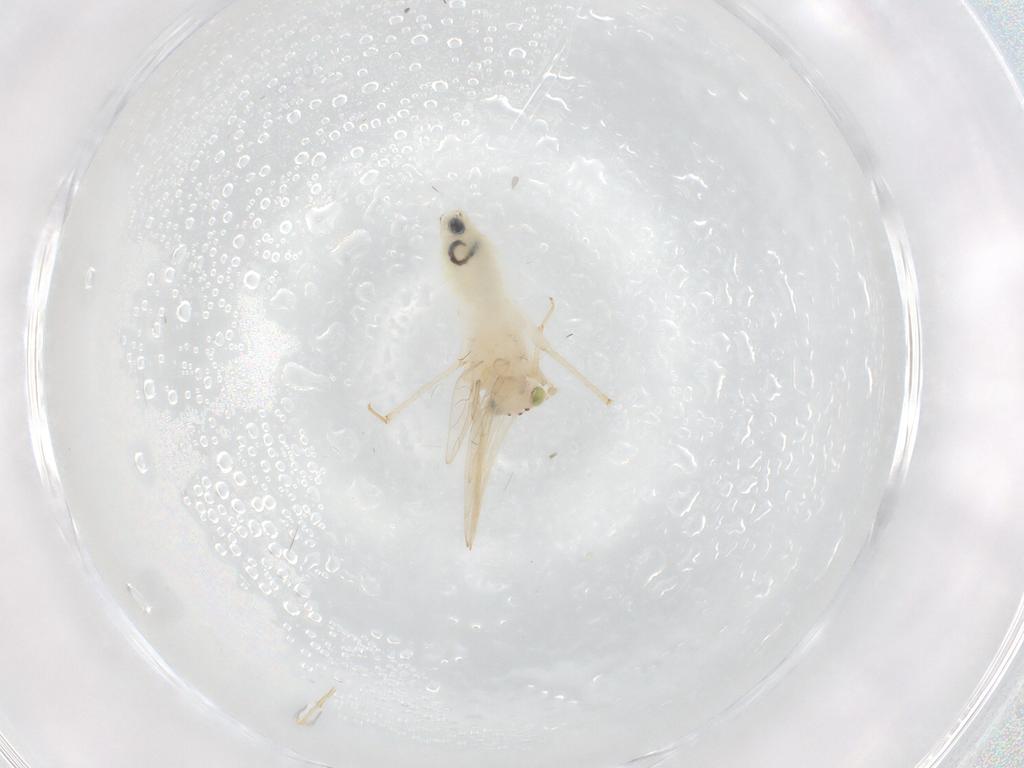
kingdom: Animalia
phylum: Arthropoda
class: Insecta
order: Psocodea
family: Lepidopsocidae
